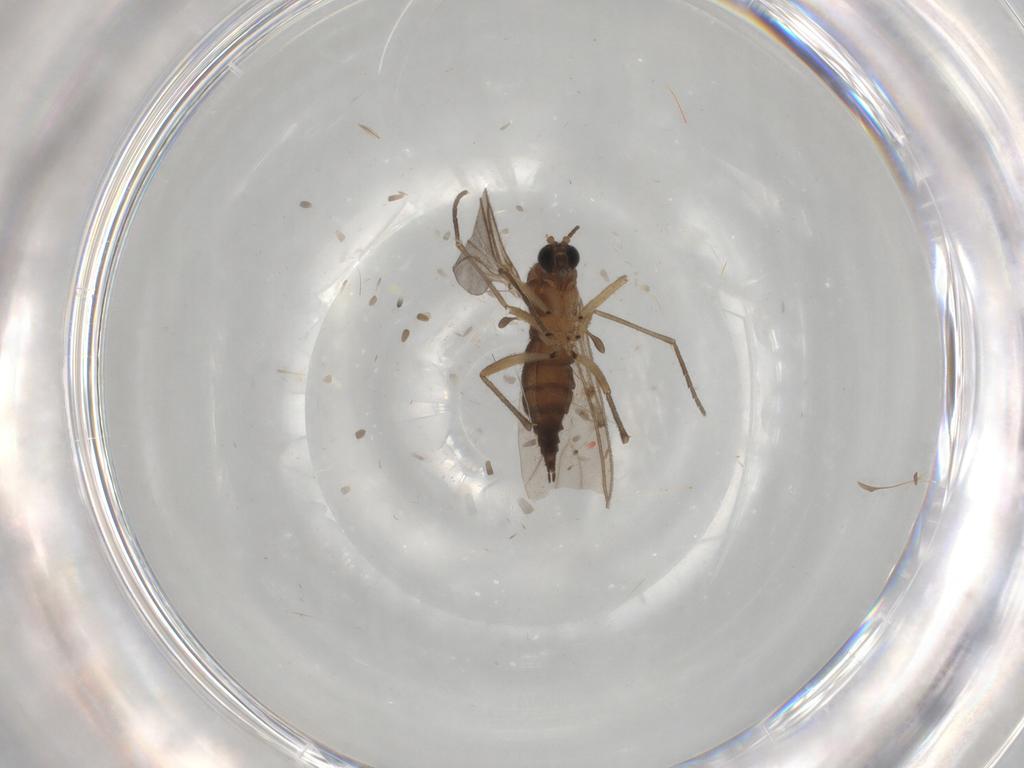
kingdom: Animalia
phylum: Arthropoda
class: Insecta
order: Diptera
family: Sciaridae
